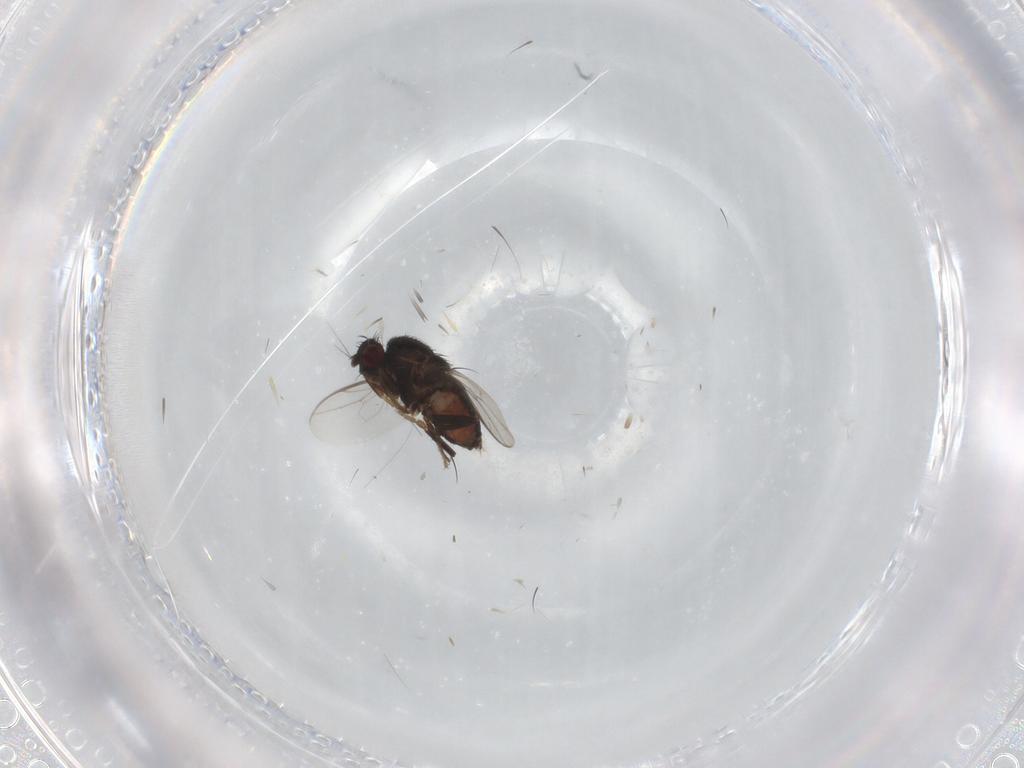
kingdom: Animalia
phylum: Arthropoda
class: Insecta
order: Diptera
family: Sphaeroceridae
